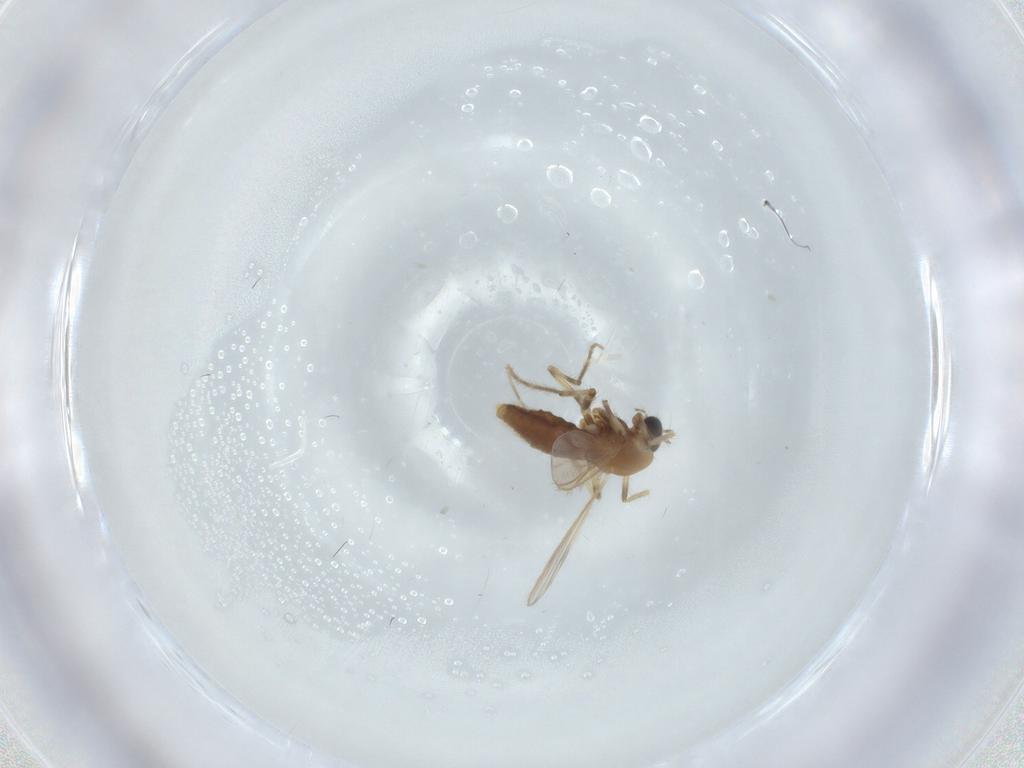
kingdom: Animalia
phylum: Arthropoda
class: Insecta
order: Diptera
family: Chironomidae
